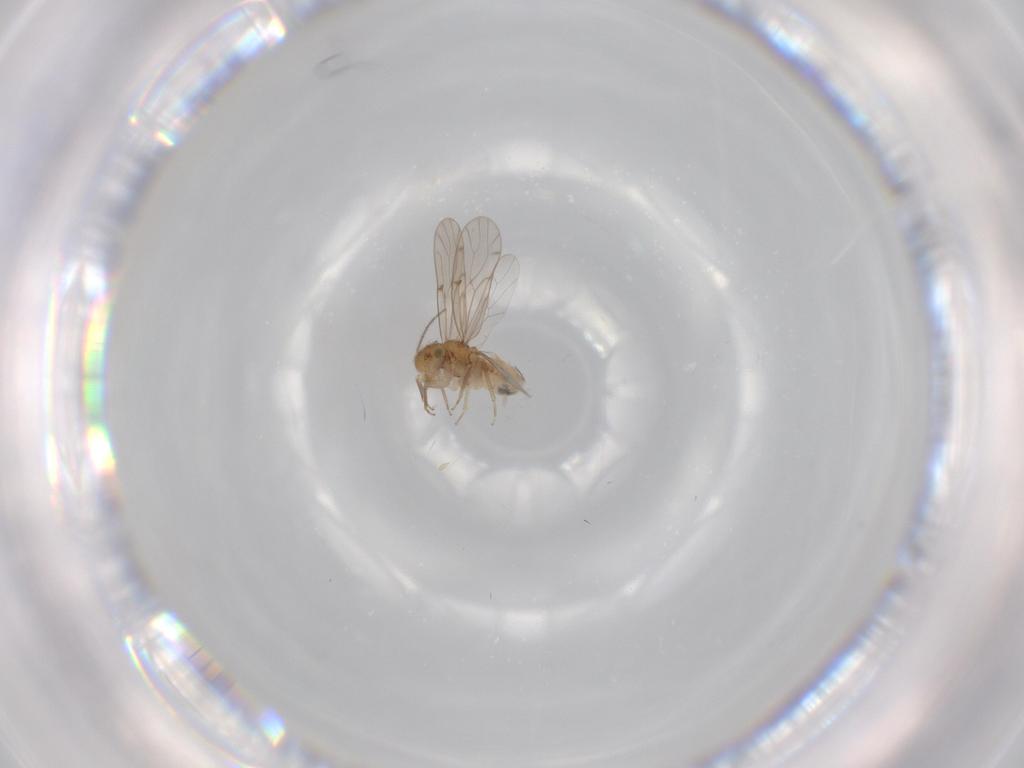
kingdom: Animalia
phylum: Arthropoda
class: Insecta
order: Psocodea
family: Ectopsocidae
